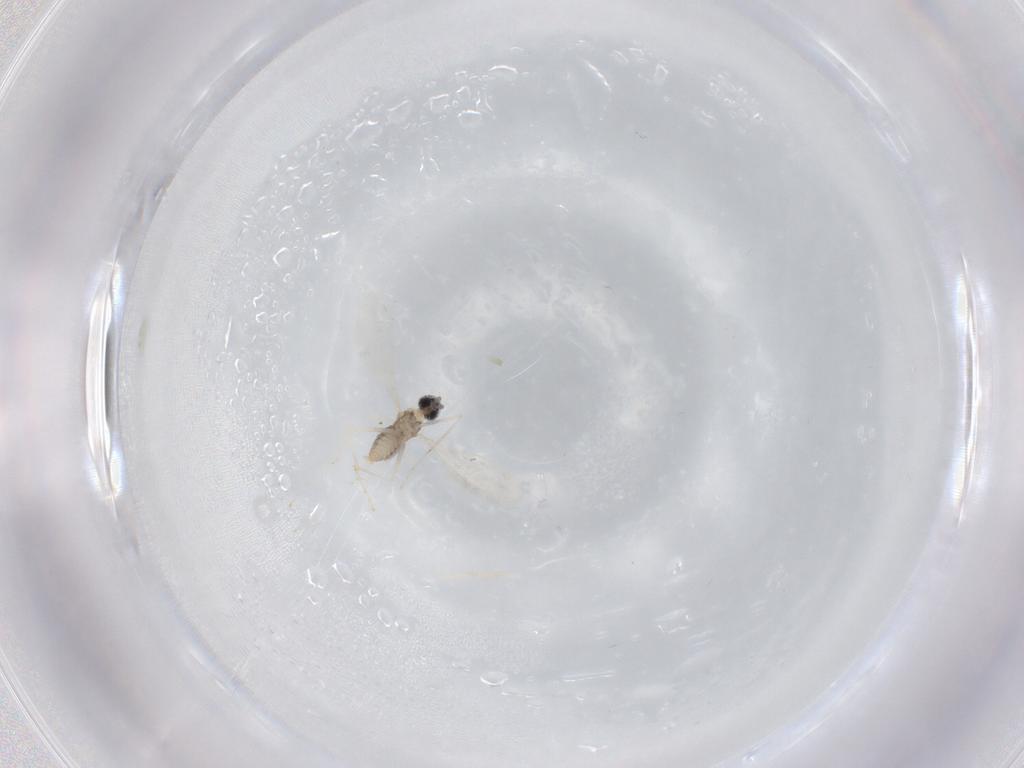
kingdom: Animalia
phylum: Arthropoda
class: Insecta
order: Diptera
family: Cecidomyiidae
